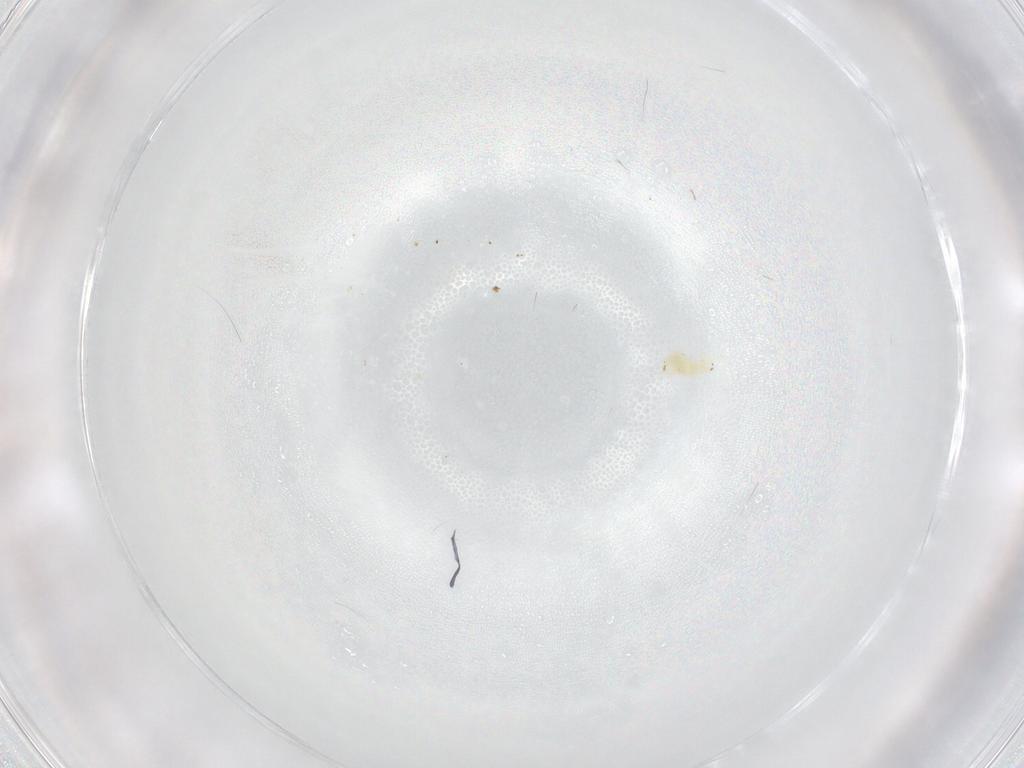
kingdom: Animalia
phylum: Arthropoda
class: Arachnida
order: Trombidiformes
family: Eupodidae
